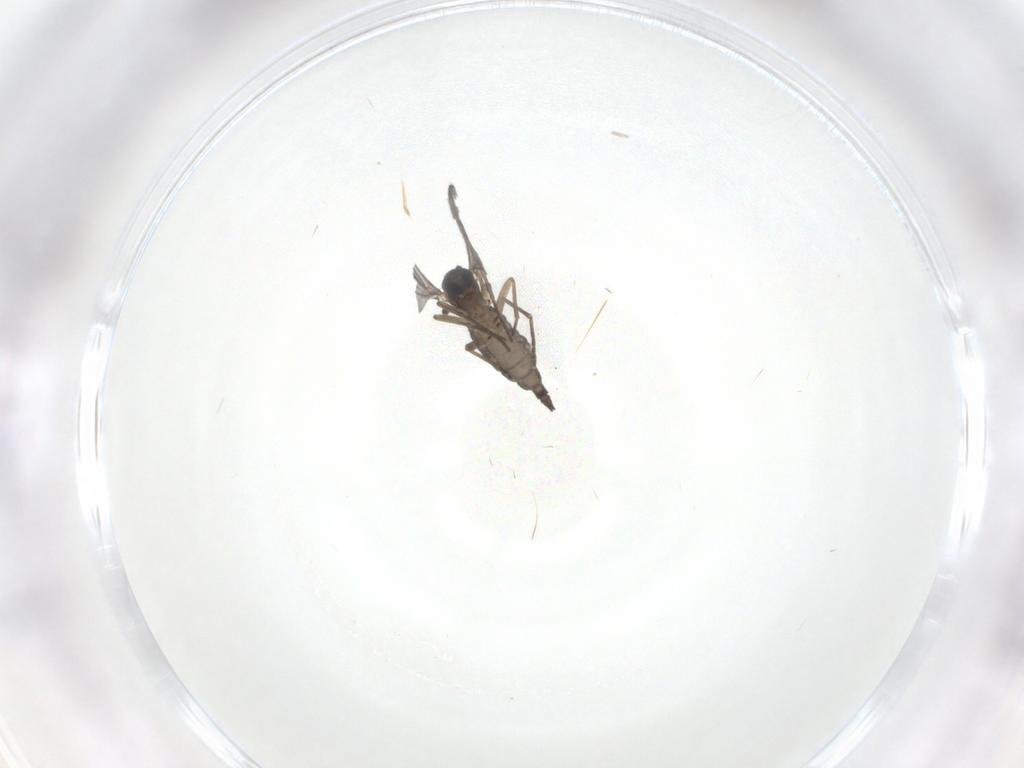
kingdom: Animalia
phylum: Arthropoda
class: Insecta
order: Diptera
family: Sciaridae
